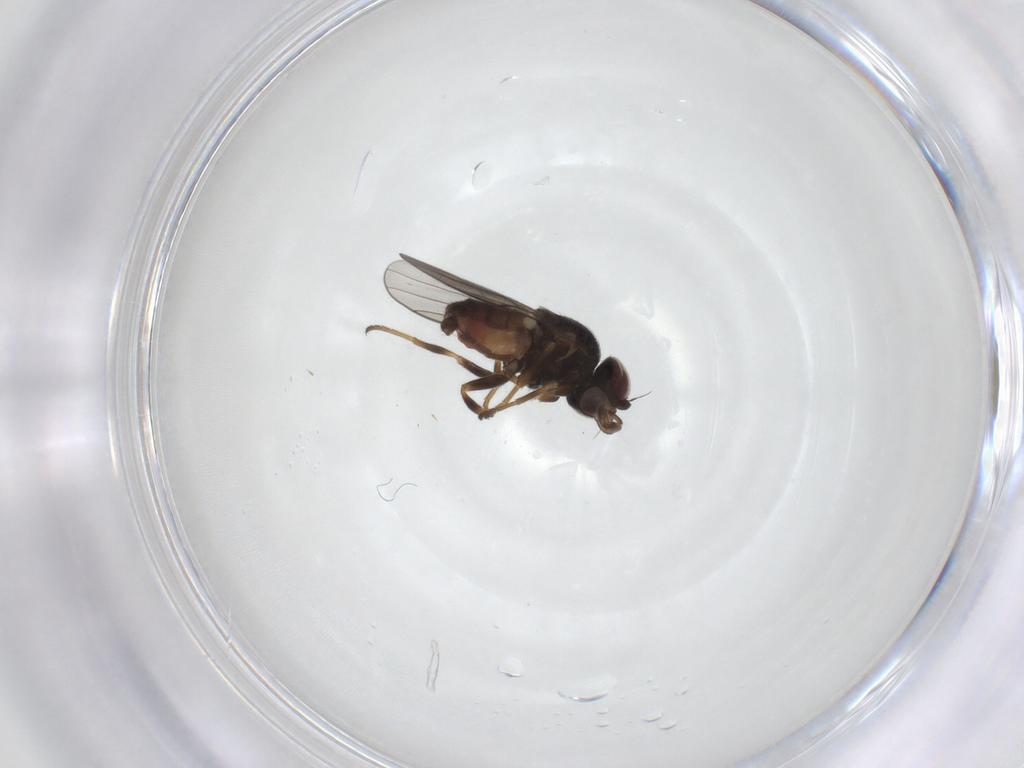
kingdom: Animalia
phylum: Arthropoda
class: Insecta
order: Diptera
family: Chloropidae
